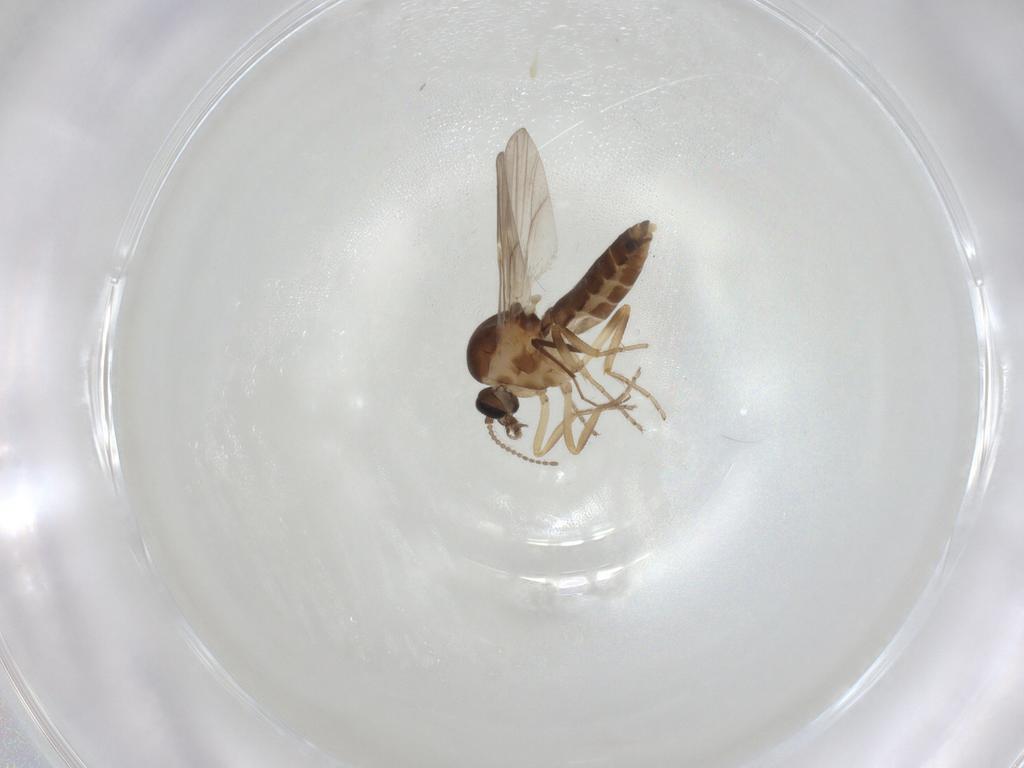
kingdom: Animalia
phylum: Arthropoda
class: Insecta
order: Diptera
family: Ceratopogonidae
